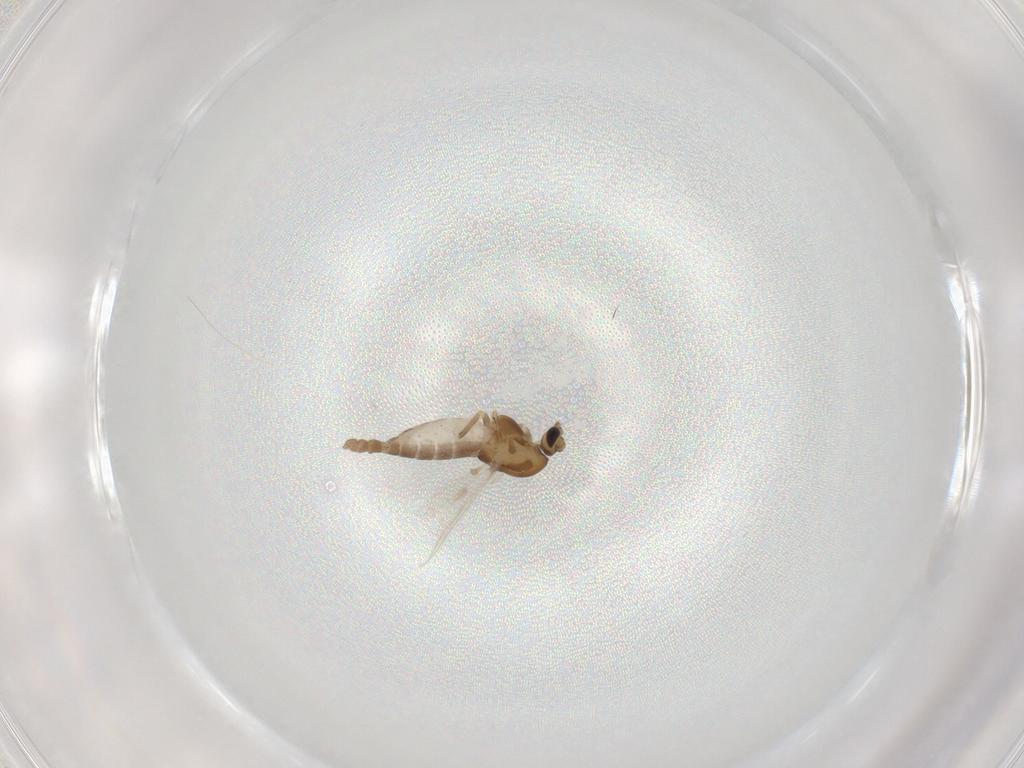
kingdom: Animalia
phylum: Arthropoda
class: Insecta
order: Diptera
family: Chironomidae
